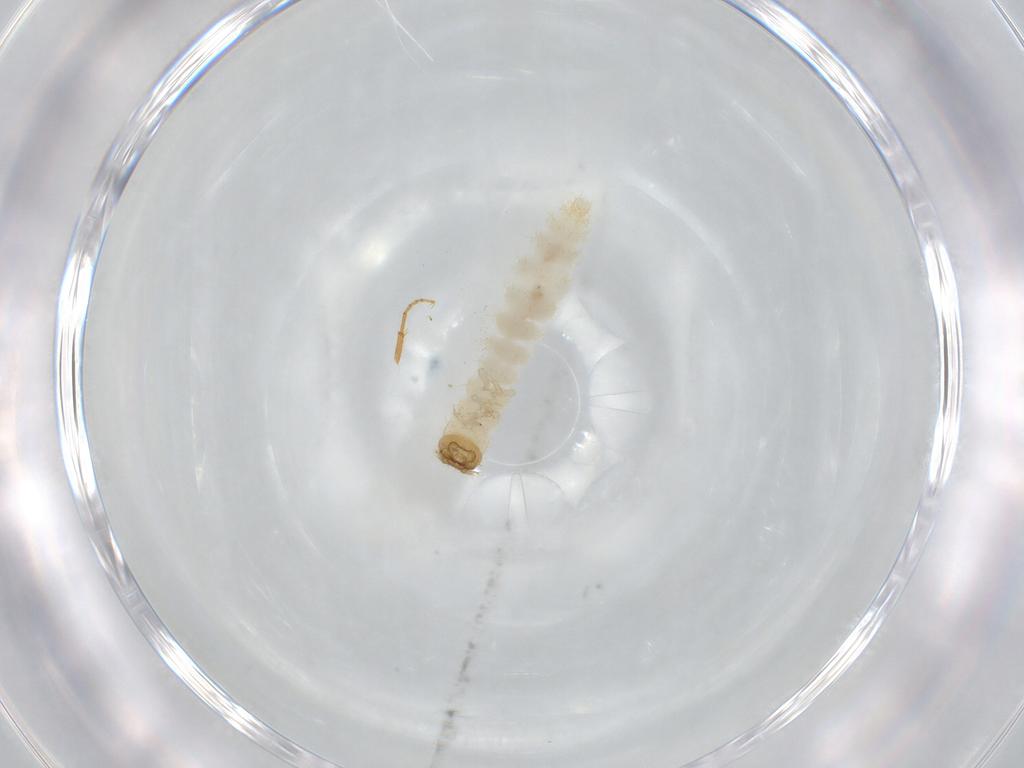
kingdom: Animalia
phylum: Arthropoda
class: Insecta
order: Coleoptera
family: Staphylinidae
